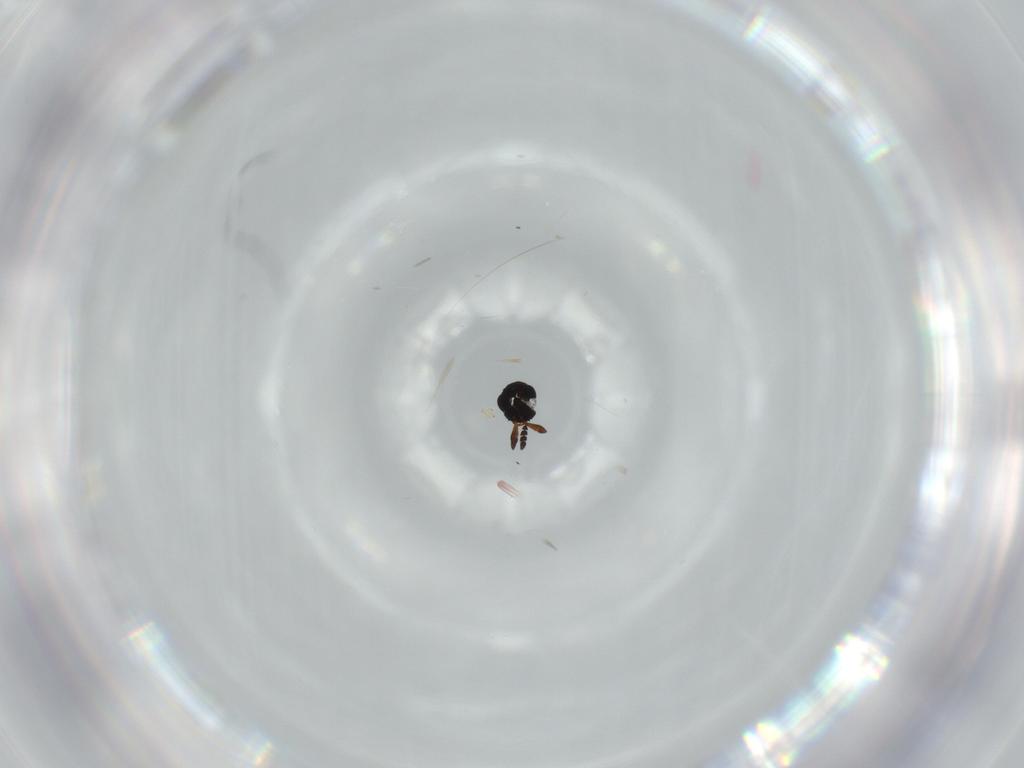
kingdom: Animalia
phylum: Arthropoda
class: Insecta
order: Hymenoptera
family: Platygastridae
